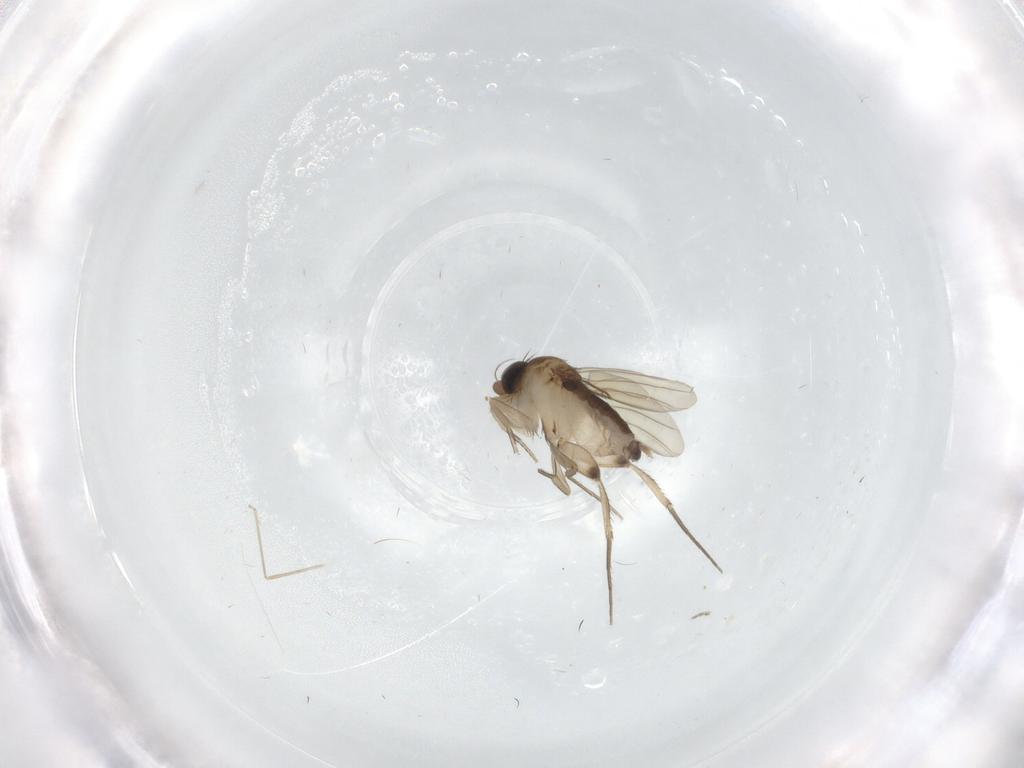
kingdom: Animalia
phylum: Arthropoda
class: Insecta
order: Diptera
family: Phoridae
